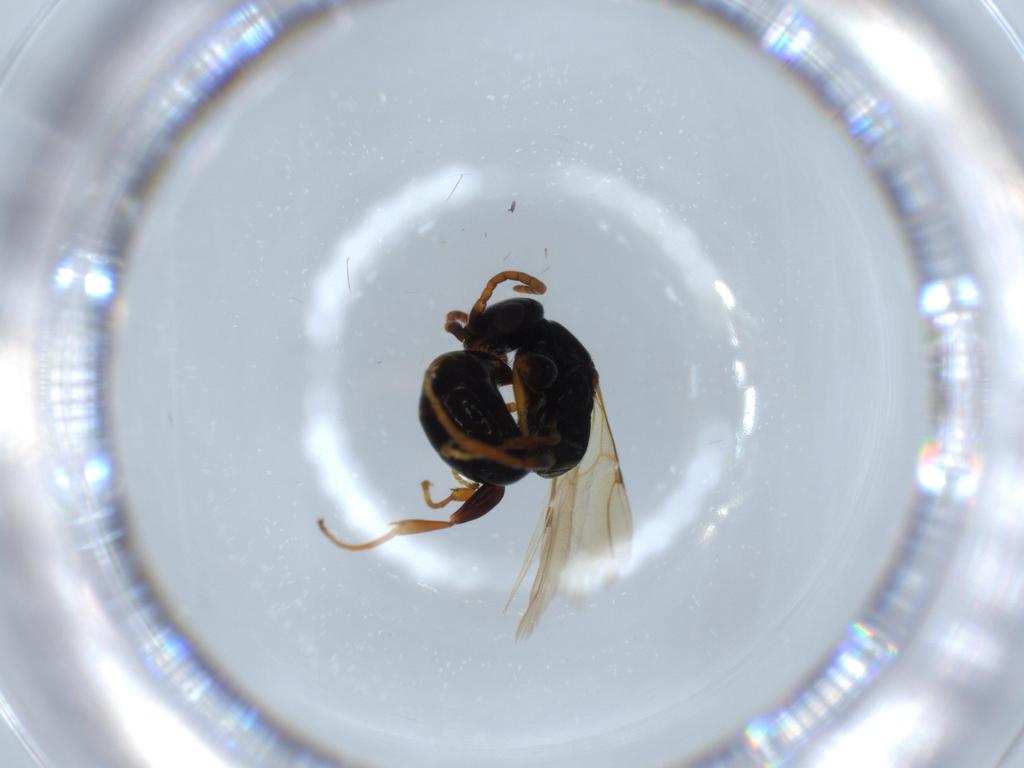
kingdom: Animalia
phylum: Arthropoda
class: Insecta
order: Hymenoptera
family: Bethylidae
